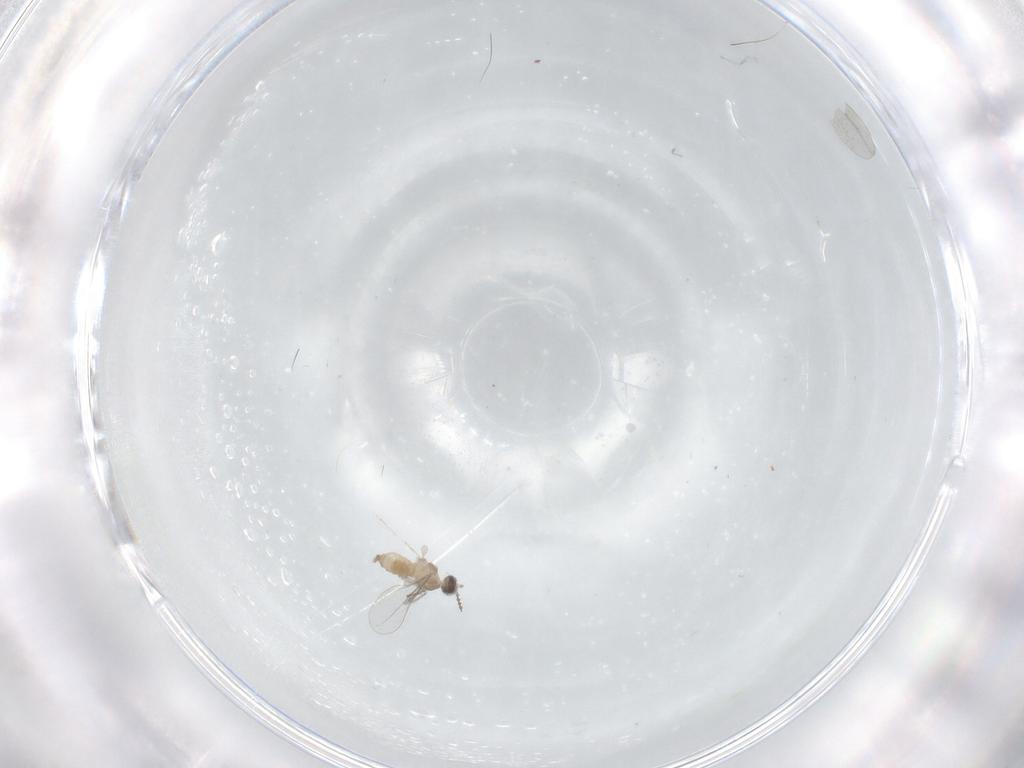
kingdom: Animalia
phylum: Arthropoda
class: Insecta
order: Diptera
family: Cecidomyiidae
